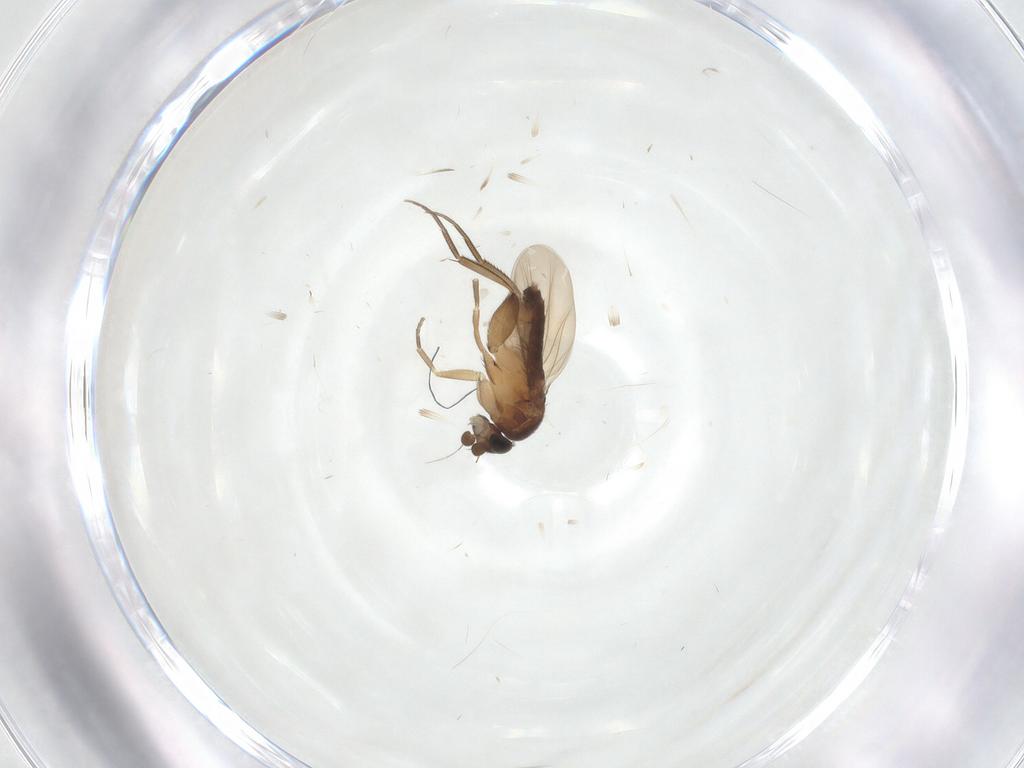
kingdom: Animalia
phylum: Arthropoda
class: Insecta
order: Diptera
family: Phoridae
